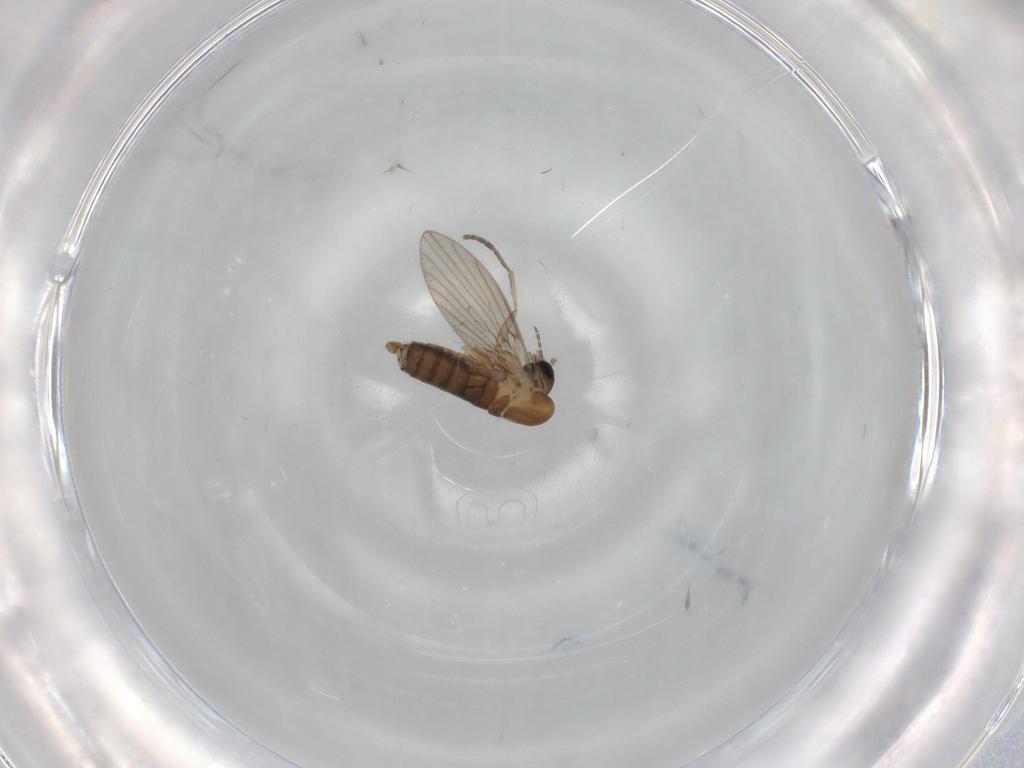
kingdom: Animalia
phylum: Arthropoda
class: Insecta
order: Diptera
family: Psychodidae
